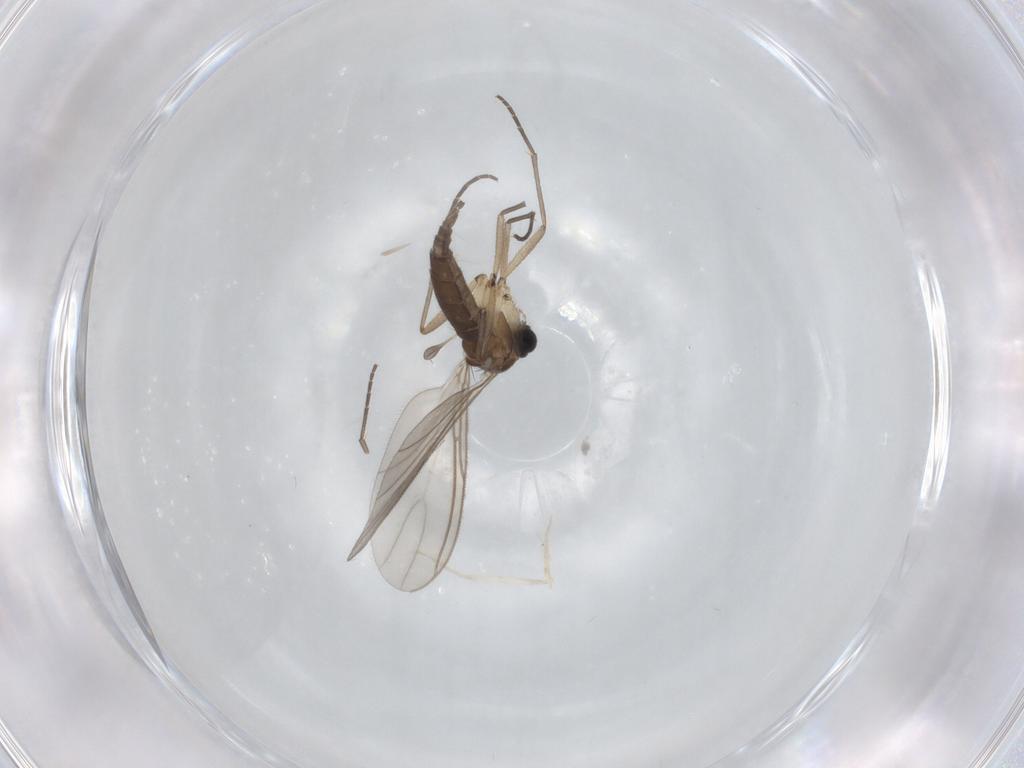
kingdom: Animalia
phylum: Arthropoda
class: Insecta
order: Diptera
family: Sciaridae
